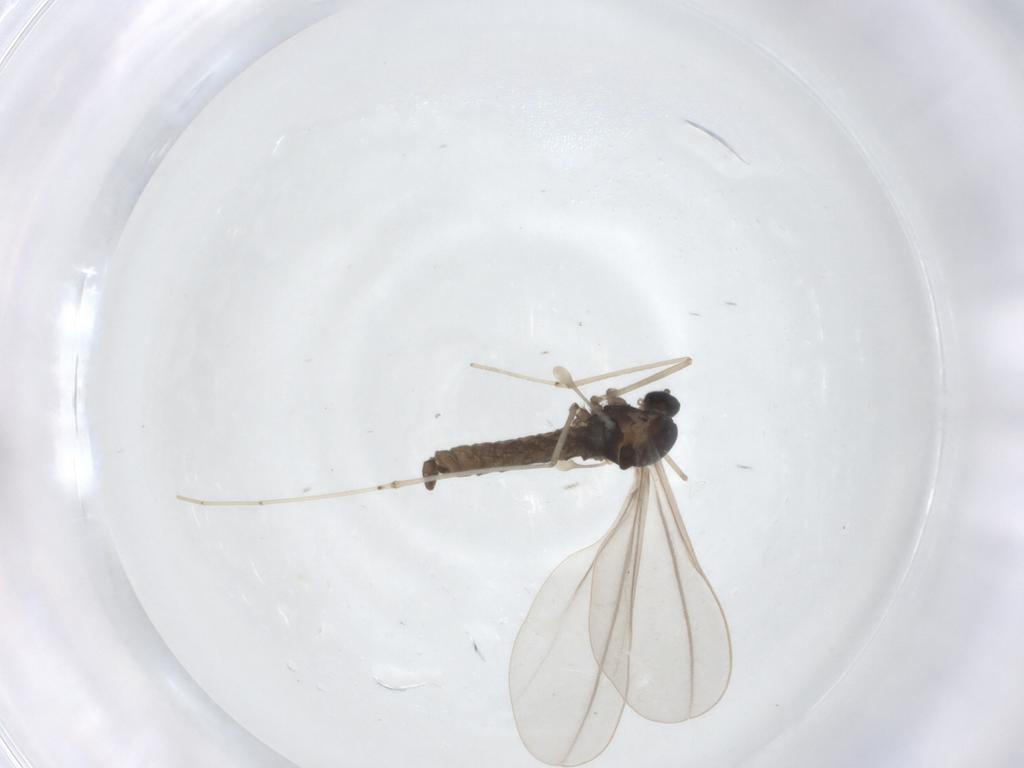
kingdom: Animalia
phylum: Arthropoda
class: Insecta
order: Diptera
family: Cecidomyiidae
